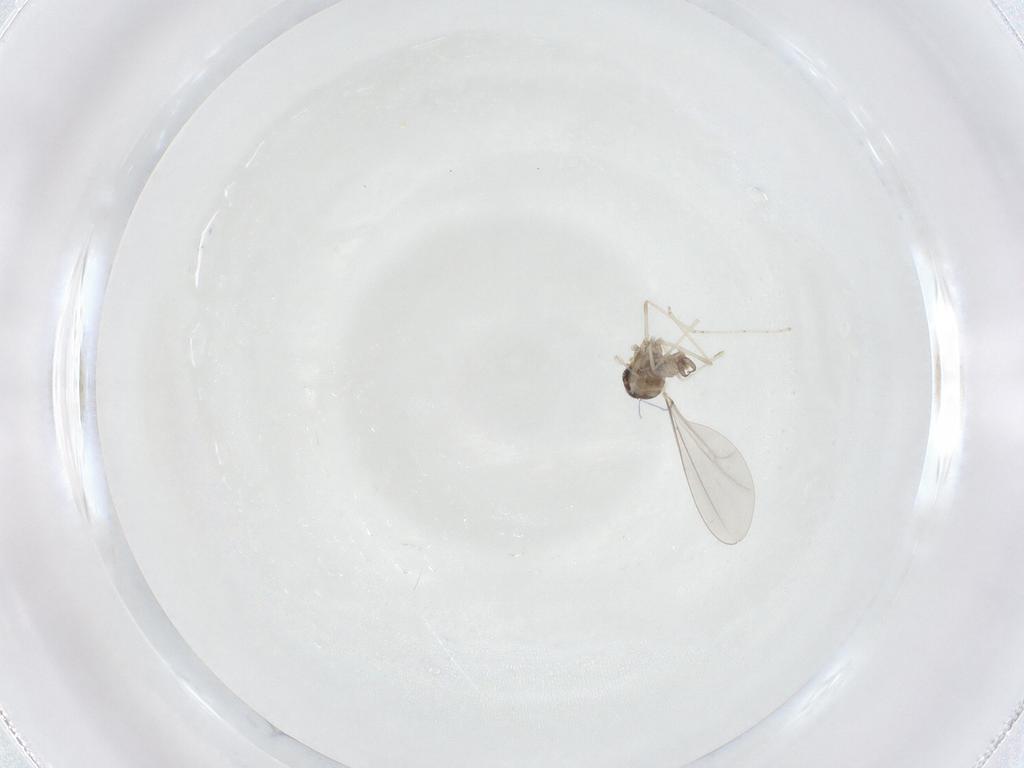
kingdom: Animalia
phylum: Arthropoda
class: Insecta
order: Diptera
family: Cecidomyiidae
